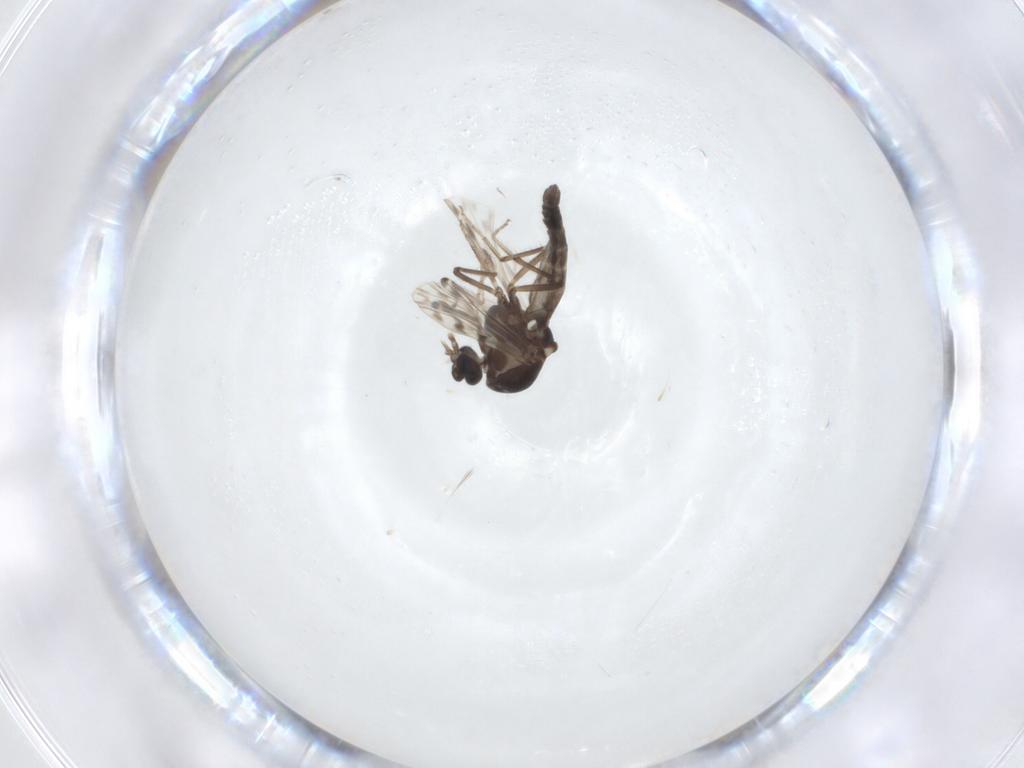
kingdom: Animalia
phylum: Arthropoda
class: Insecta
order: Diptera
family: Ceratopogonidae
